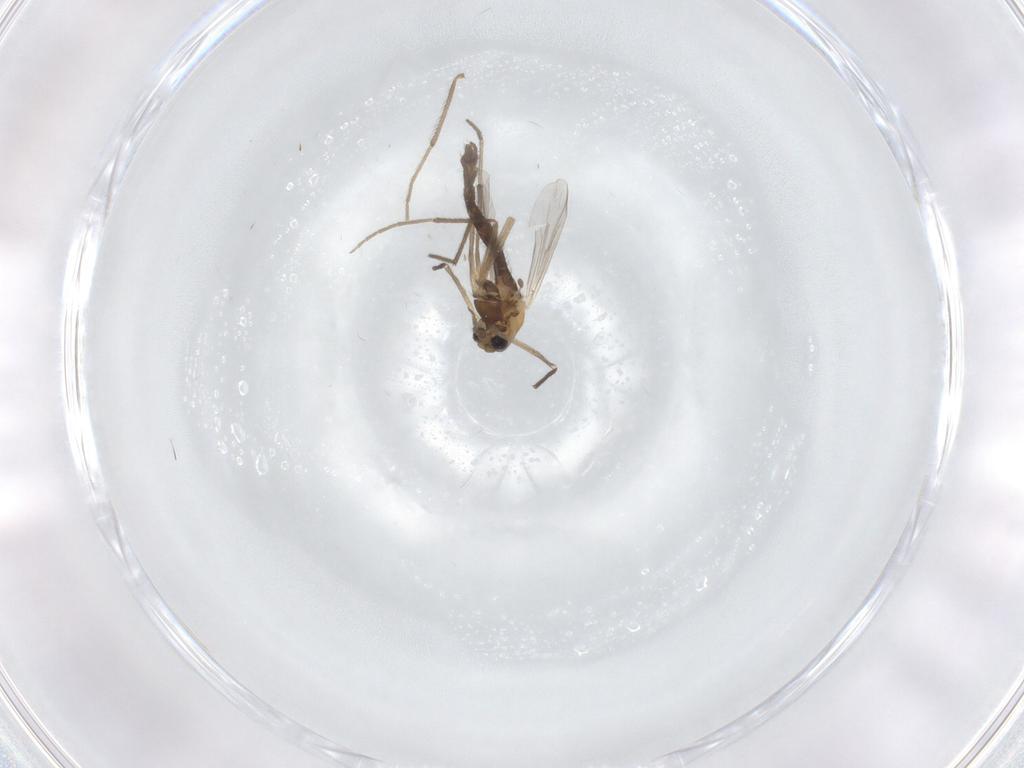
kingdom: Animalia
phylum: Arthropoda
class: Insecta
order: Diptera
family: Chironomidae
